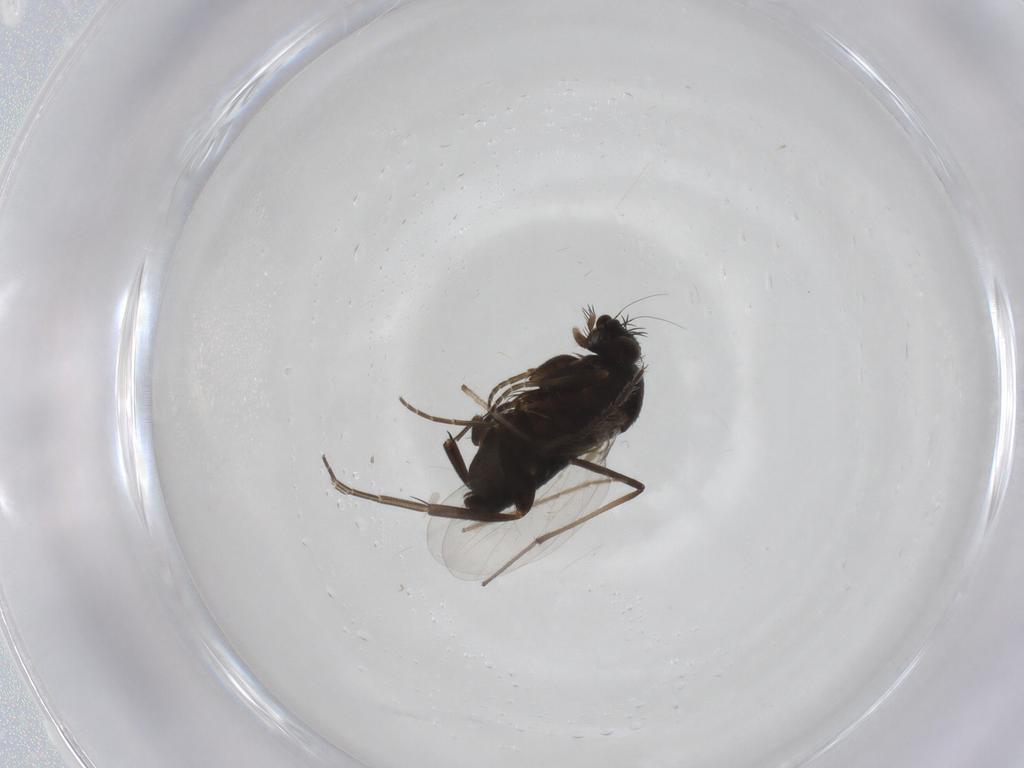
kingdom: Animalia
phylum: Arthropoda
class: Insecta
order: Diptera
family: Phoridae
